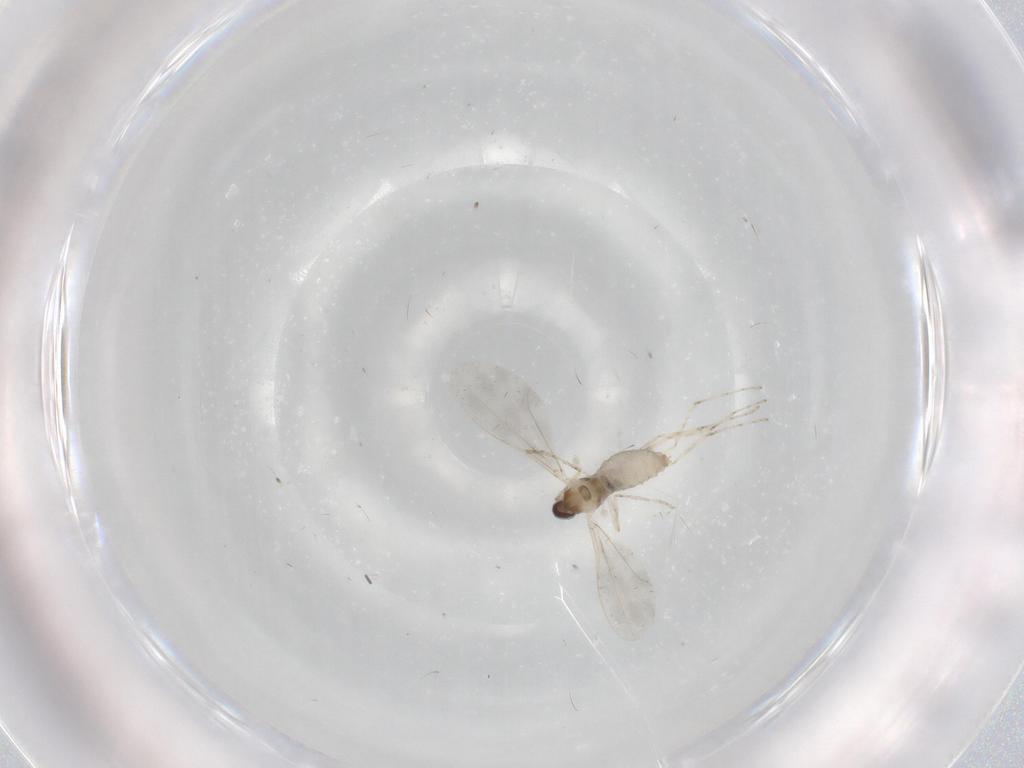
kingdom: Animalia
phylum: Arthropoda
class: Insecta
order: Diptera
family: Cecidomyiidae
